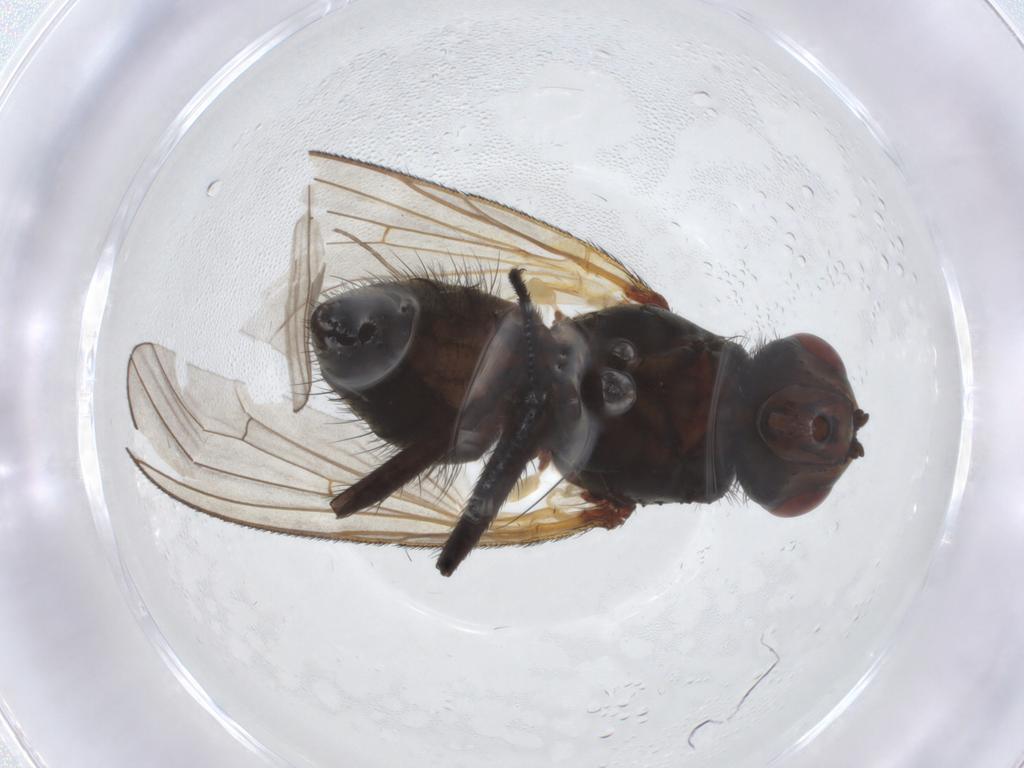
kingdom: Animalia
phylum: Arthropoda
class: Insecta
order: Diptera
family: Anthomyiidae
